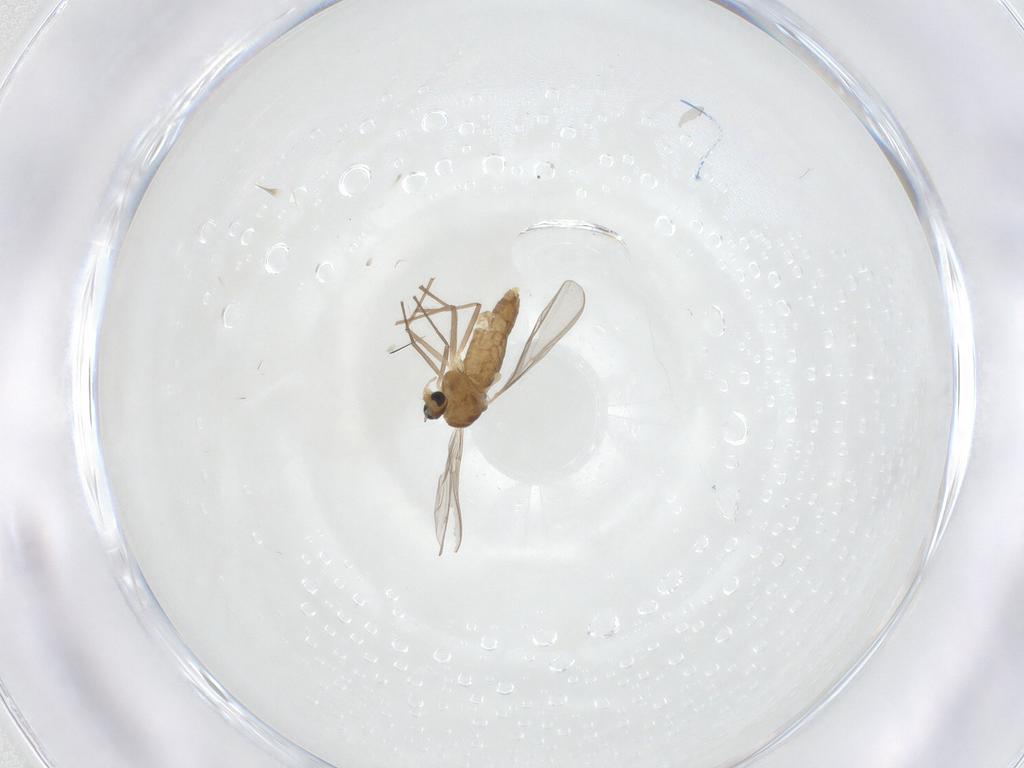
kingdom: Animalia
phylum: Arthropoda
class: Insecta
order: Diptera
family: Chironomidae
